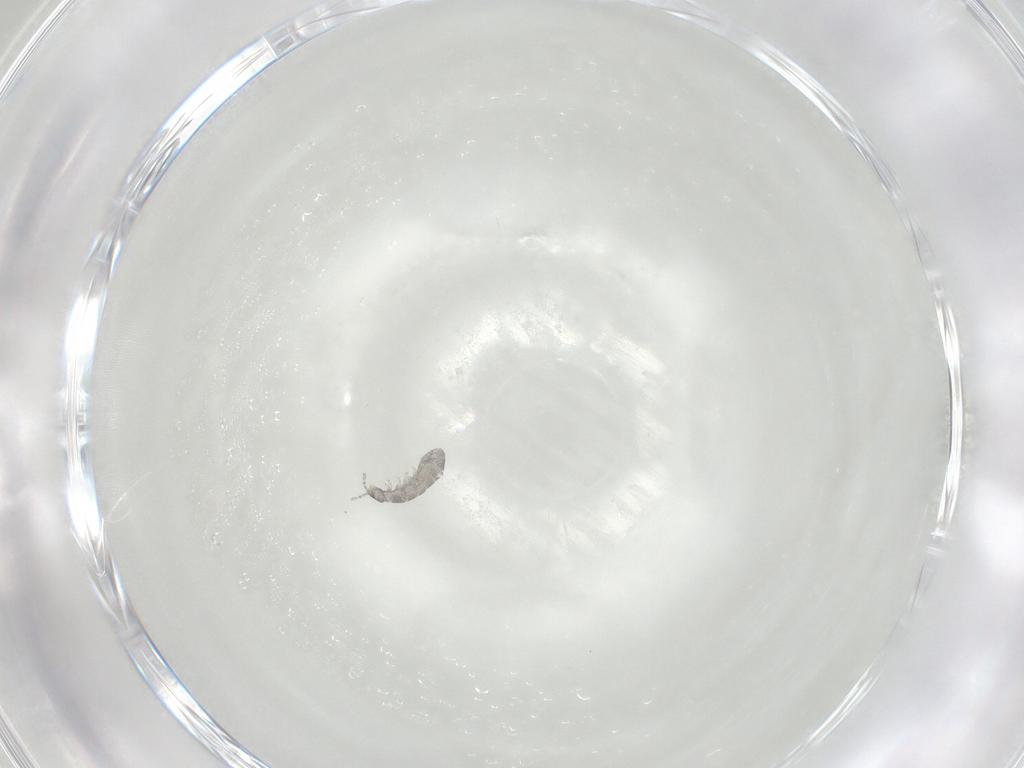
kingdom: Animalia
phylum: Arthropoda
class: Collembola
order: Entomobryomorpha
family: Isotomidae
